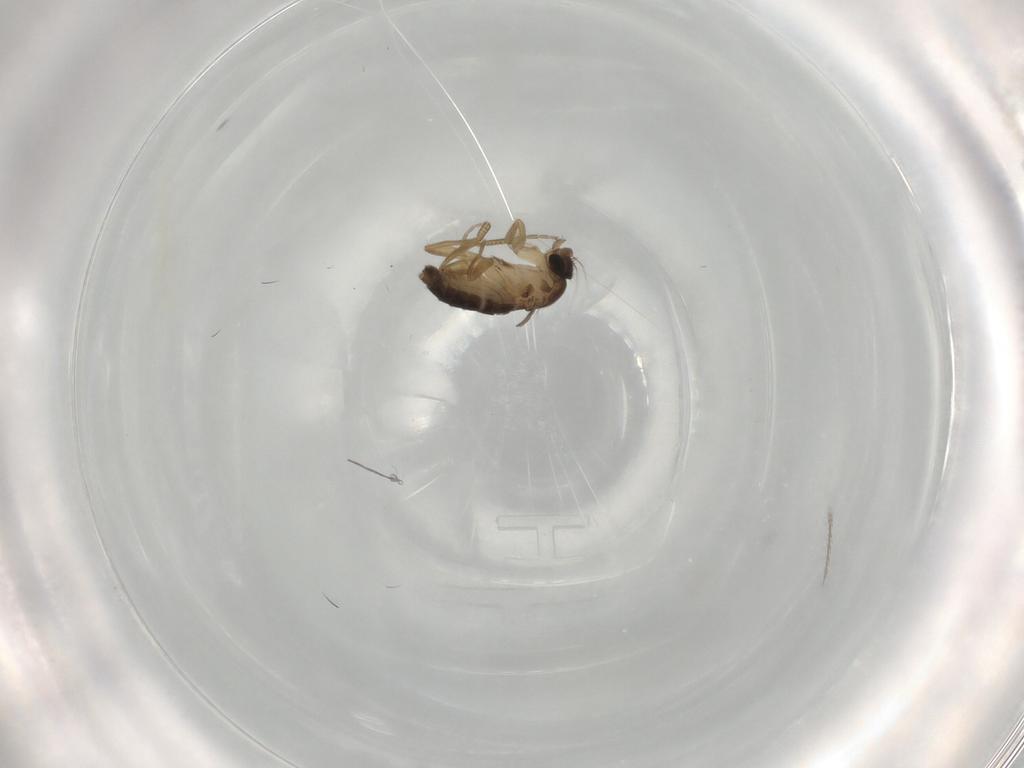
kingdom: Animalia
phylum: Arthropoda
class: Insecta
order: Diptera
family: Phoridae
